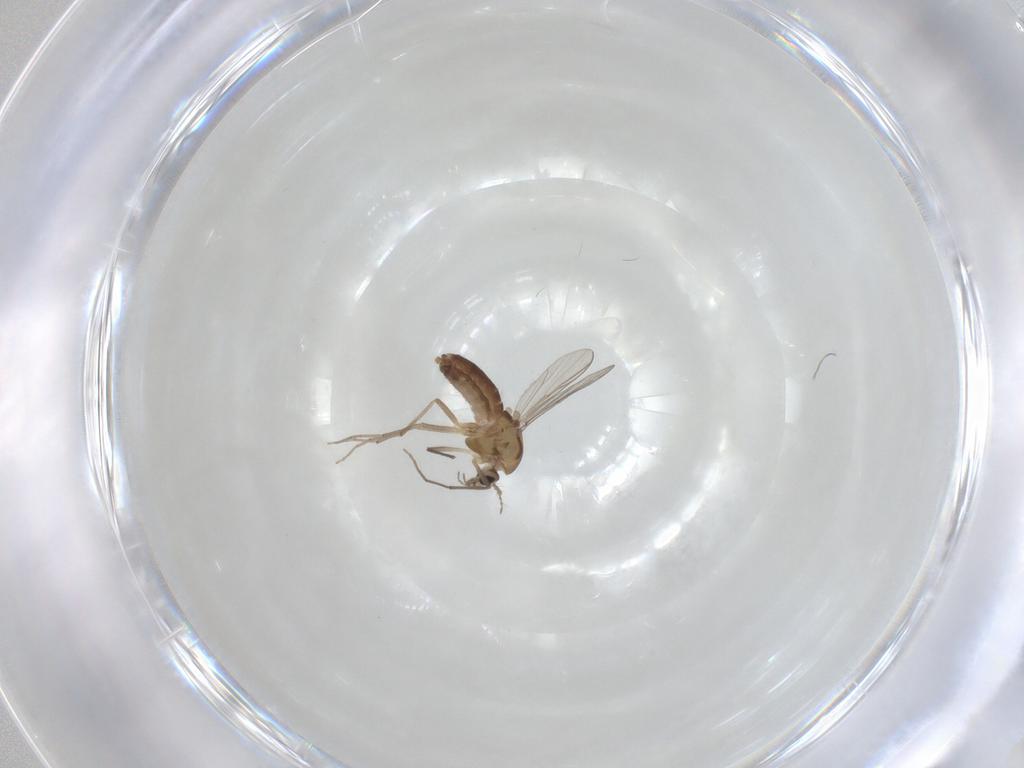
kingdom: Animalia
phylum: Arthropoda
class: Insecta
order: Diptera
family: Chironomidae
